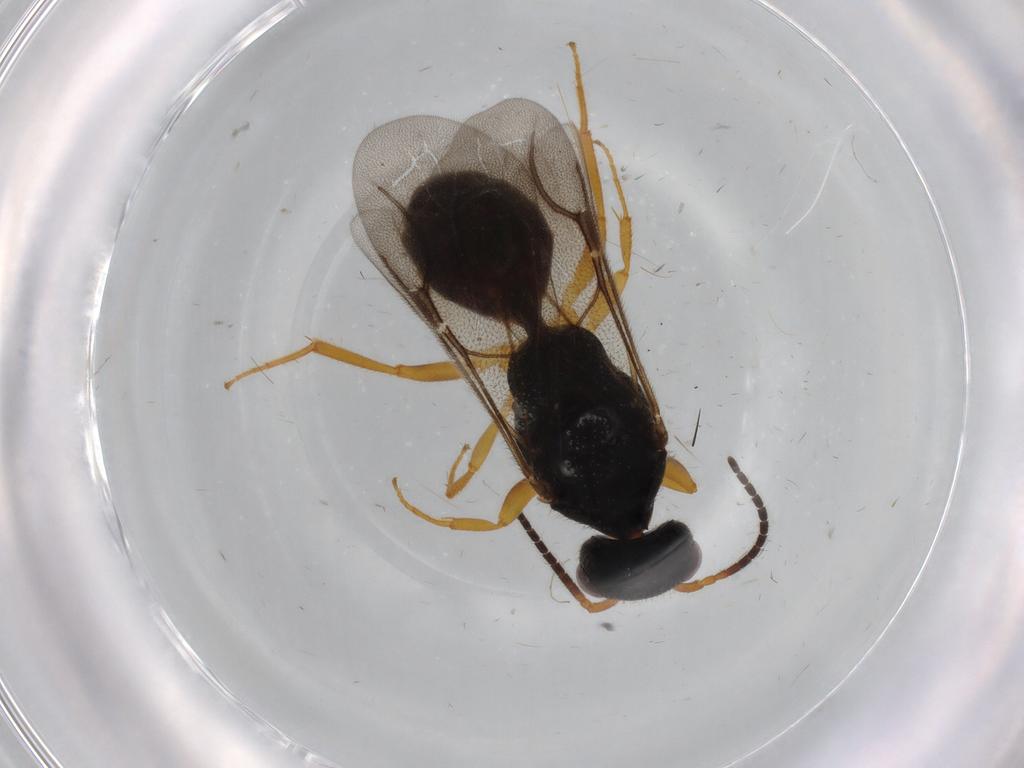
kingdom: Animalia
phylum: Arthropoda
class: Insecta
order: Hymenoptera
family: Bethylidae
